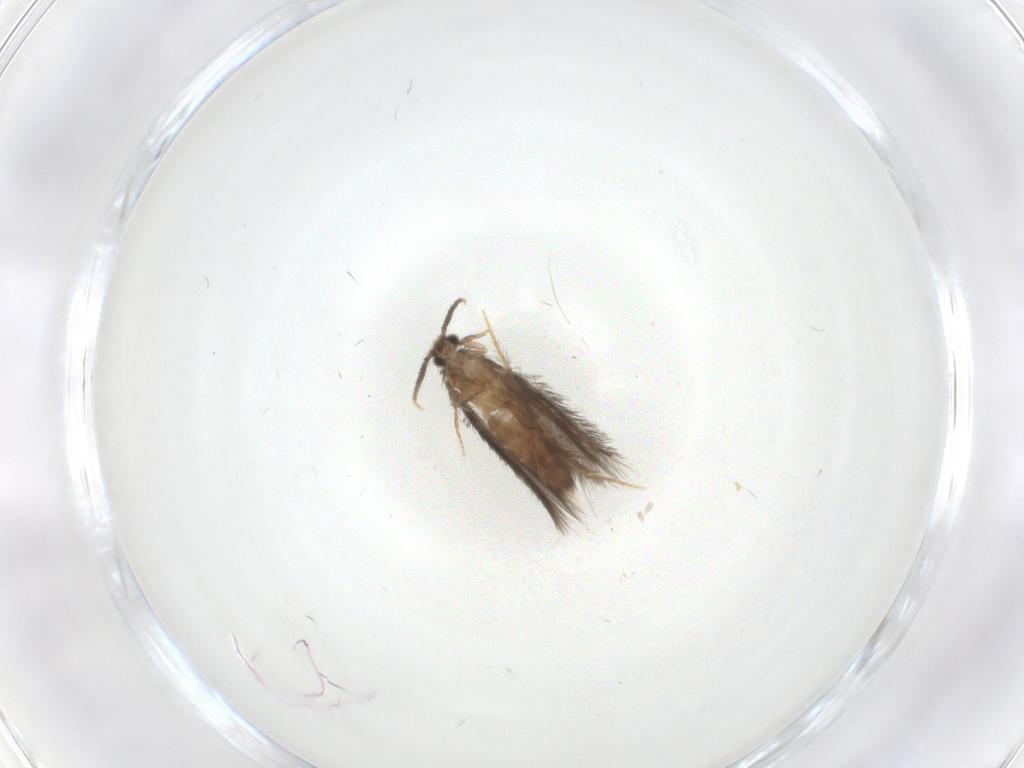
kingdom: Animalia
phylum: Arthropoda
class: Insecta
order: Trichoptera
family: Hydroptilidae
